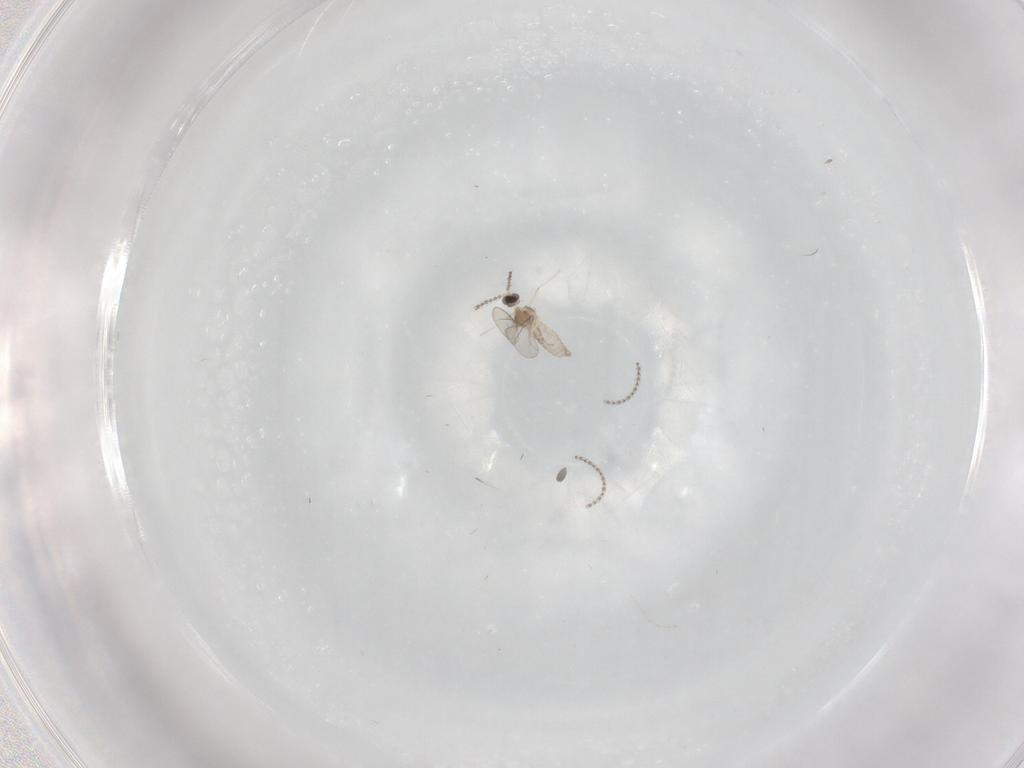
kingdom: Animalia
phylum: Arthropoda
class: Insecta
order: Diptera
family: Cecidomyiidae
